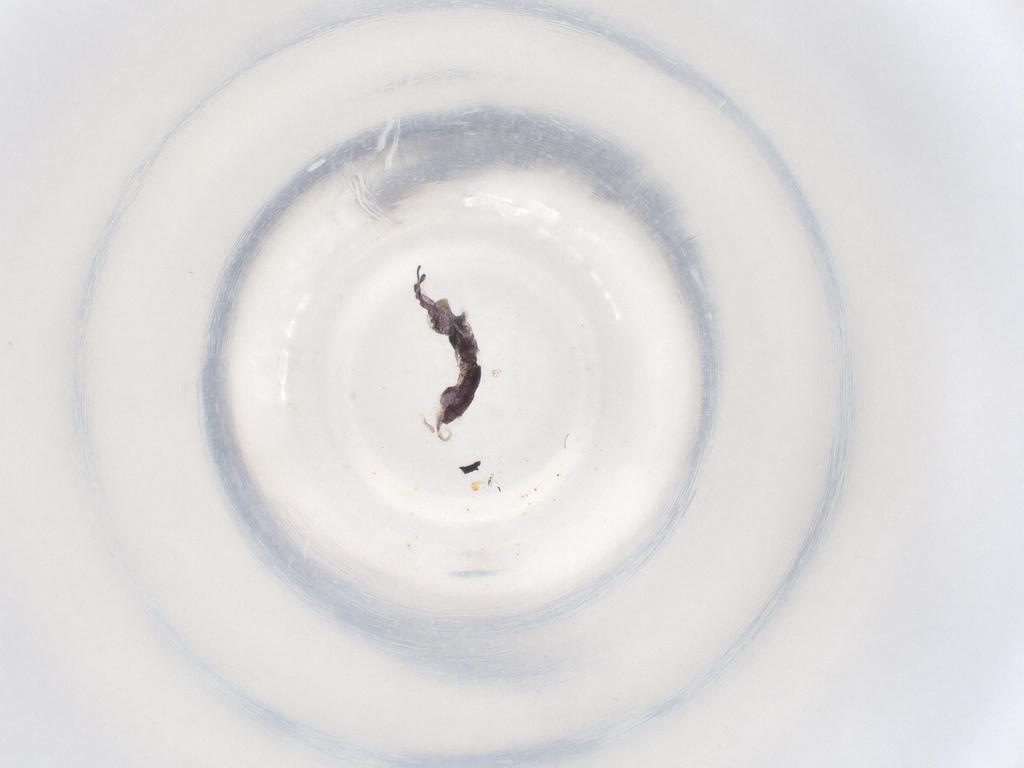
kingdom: Animalia
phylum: Arthropoda
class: Collembola
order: Entomobryomorpha
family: Isotomidae
